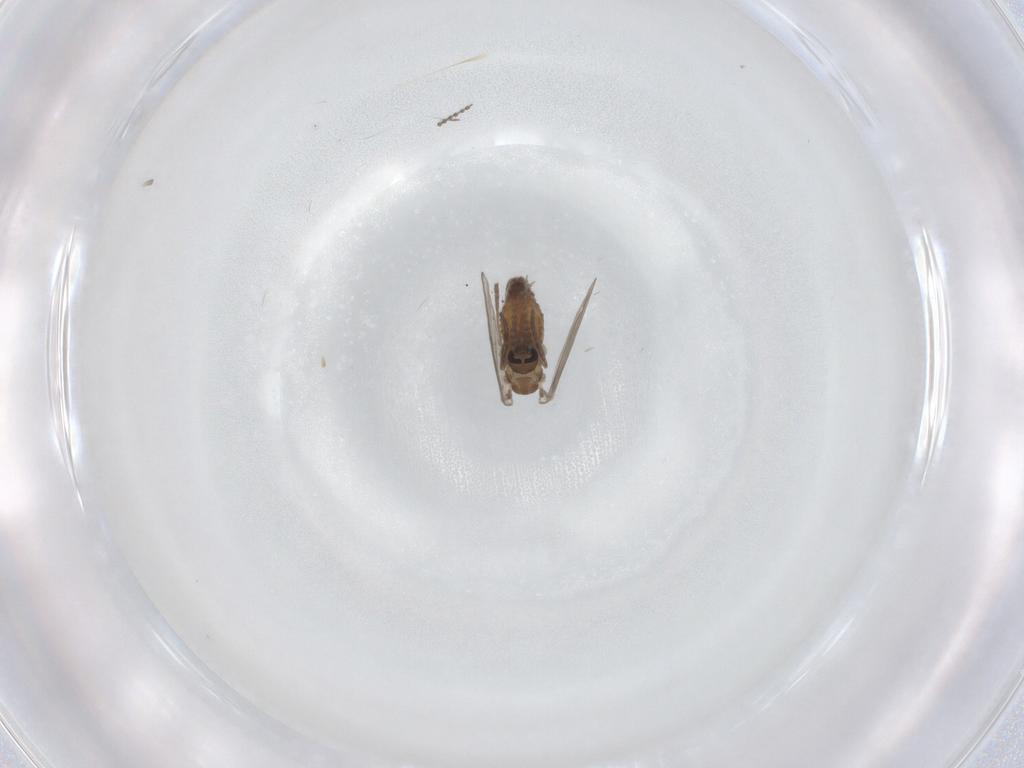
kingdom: Animalia
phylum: Arthropoda
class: Insecta
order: Diptera
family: Psychodidae
